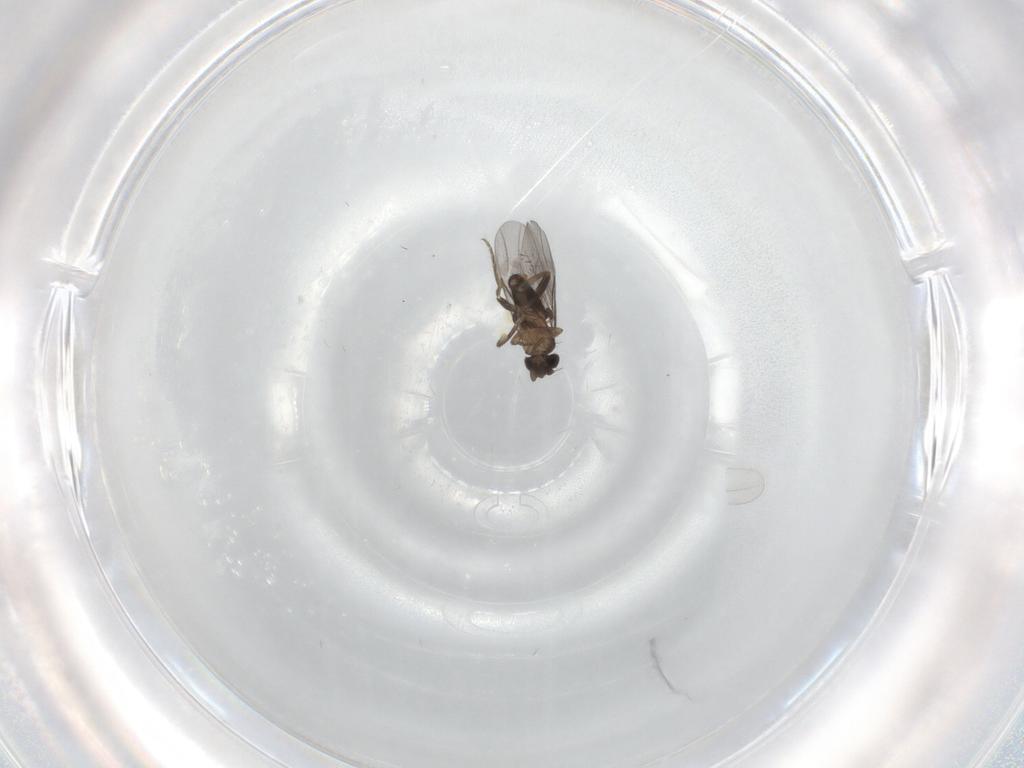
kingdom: Animalia
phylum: Arthropoda
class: Insecta
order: Diptera
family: Cecidomyiidae
